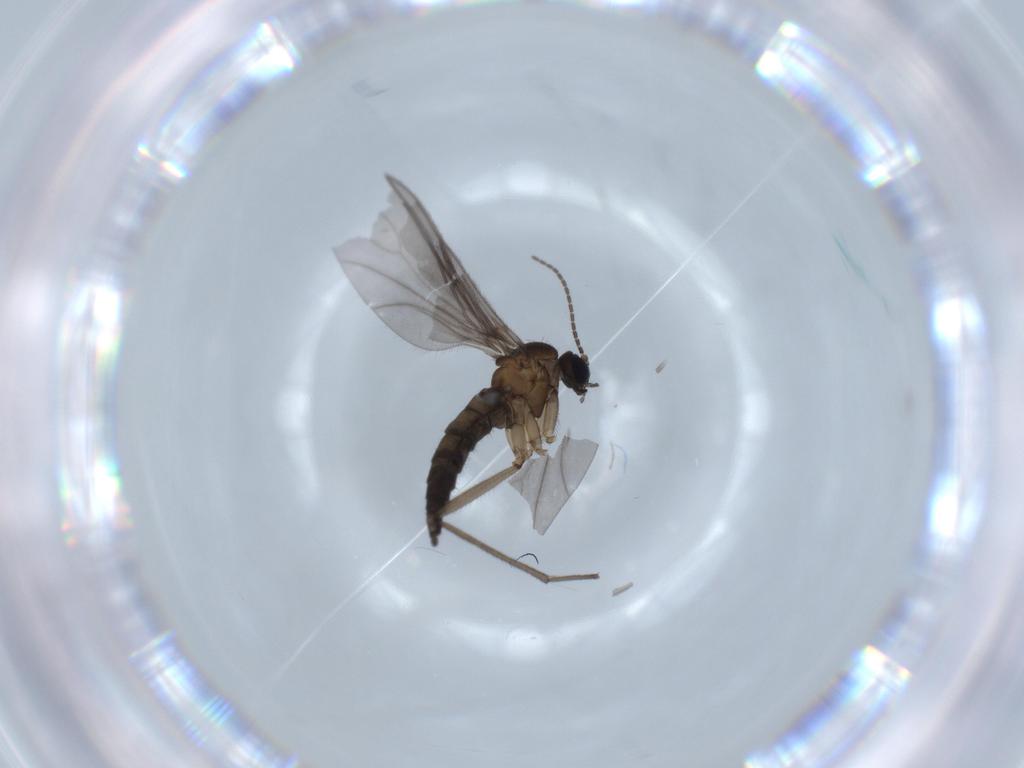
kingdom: Animalia
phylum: Arthropoda
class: Insecta
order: Diptera
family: Sciaridae
